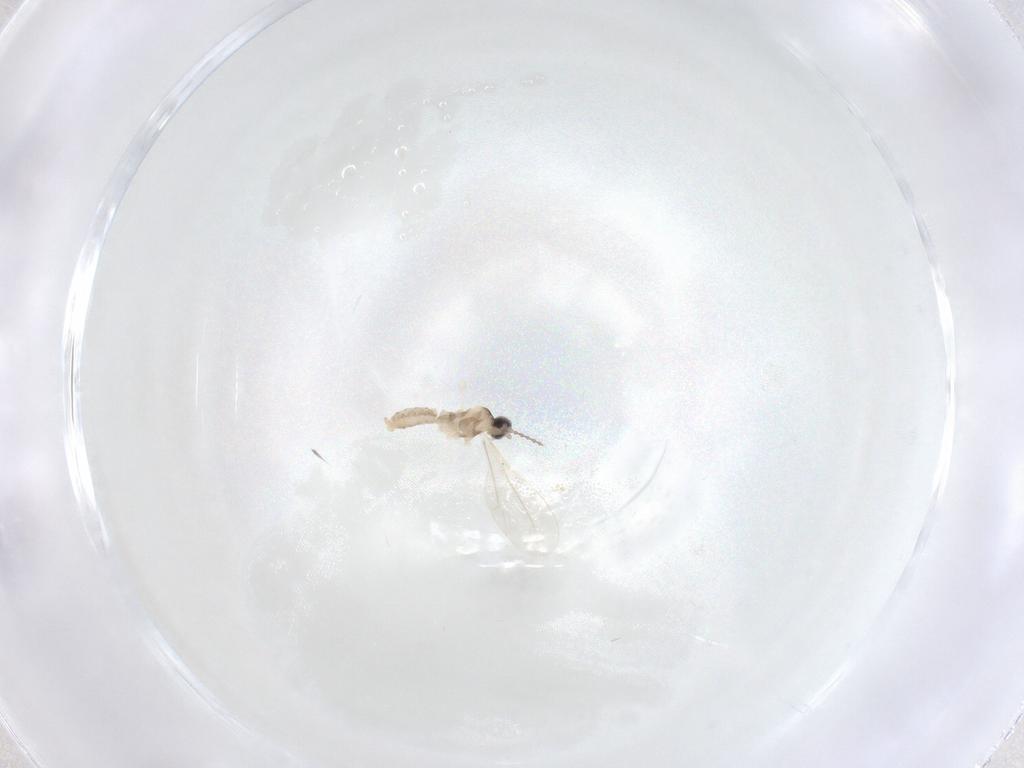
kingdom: Animalia
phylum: Arthropoda
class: Insecta
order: Diptera
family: Cecidomyiidae
